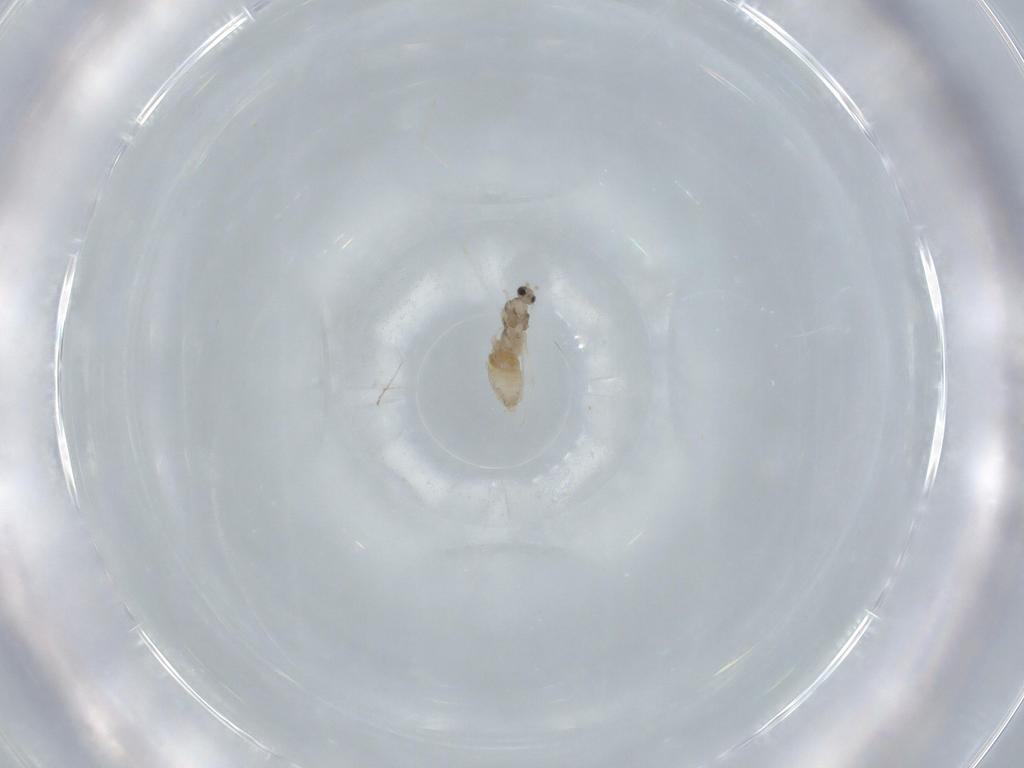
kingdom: Animalia
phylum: Arthropoda
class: Insecta
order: Diptera
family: Cecidomyiidae
